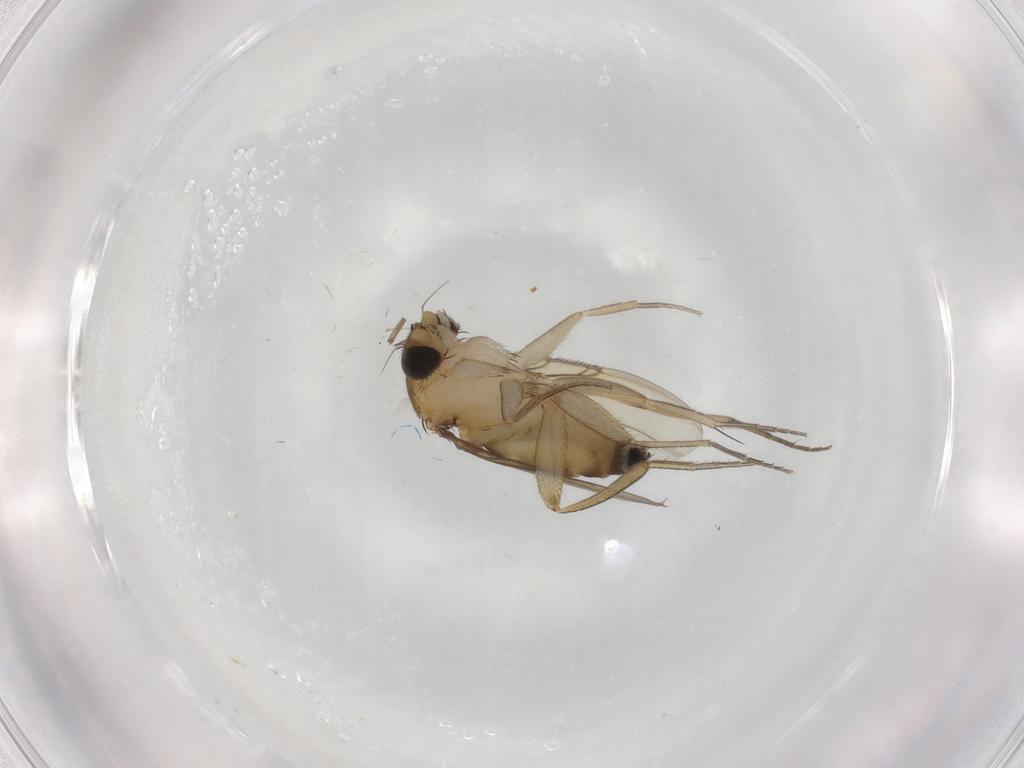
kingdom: Animalia
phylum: Arthropoda
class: Insecta
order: Diptera
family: Phoridae
